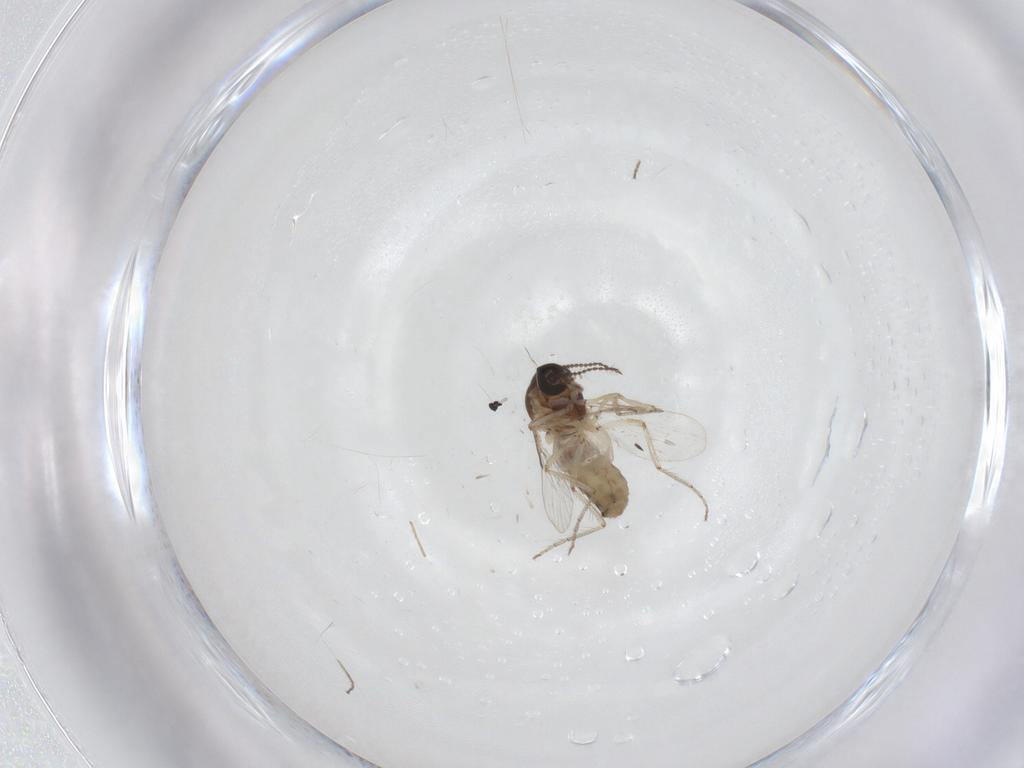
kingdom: Animalia
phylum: Arthropoda
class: Insecta
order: Diptera
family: Ceratopogonidae
